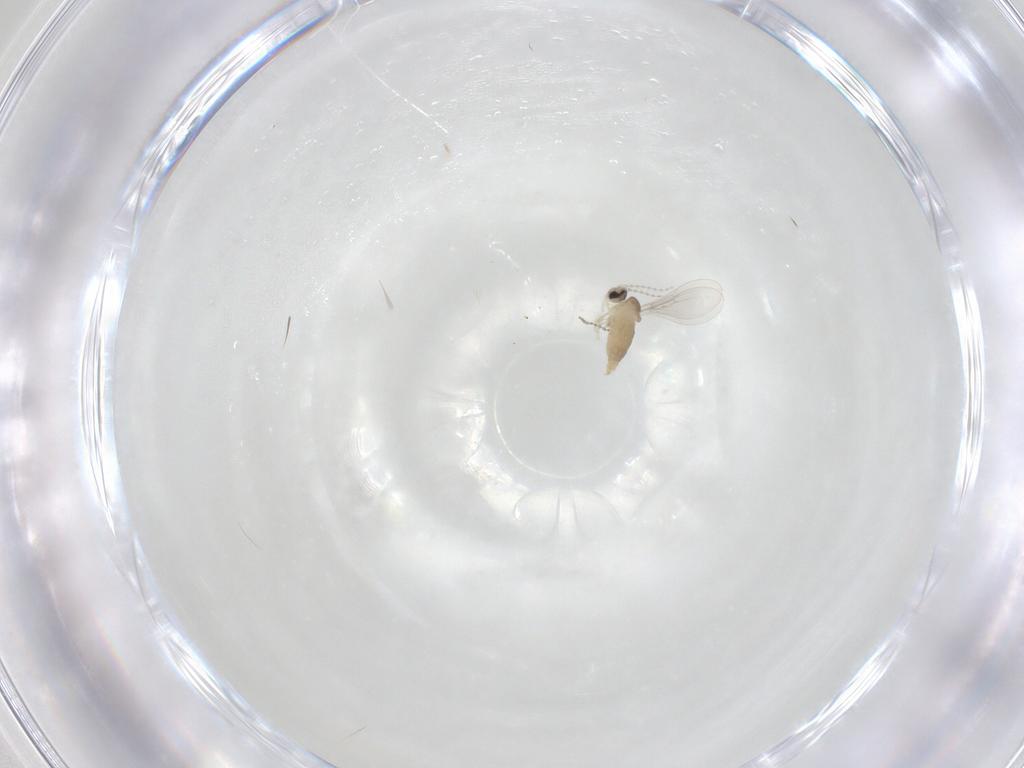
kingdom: Animalia
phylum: Arthropoda
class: Insecta
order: Diptera
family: Cecidomyiidae
